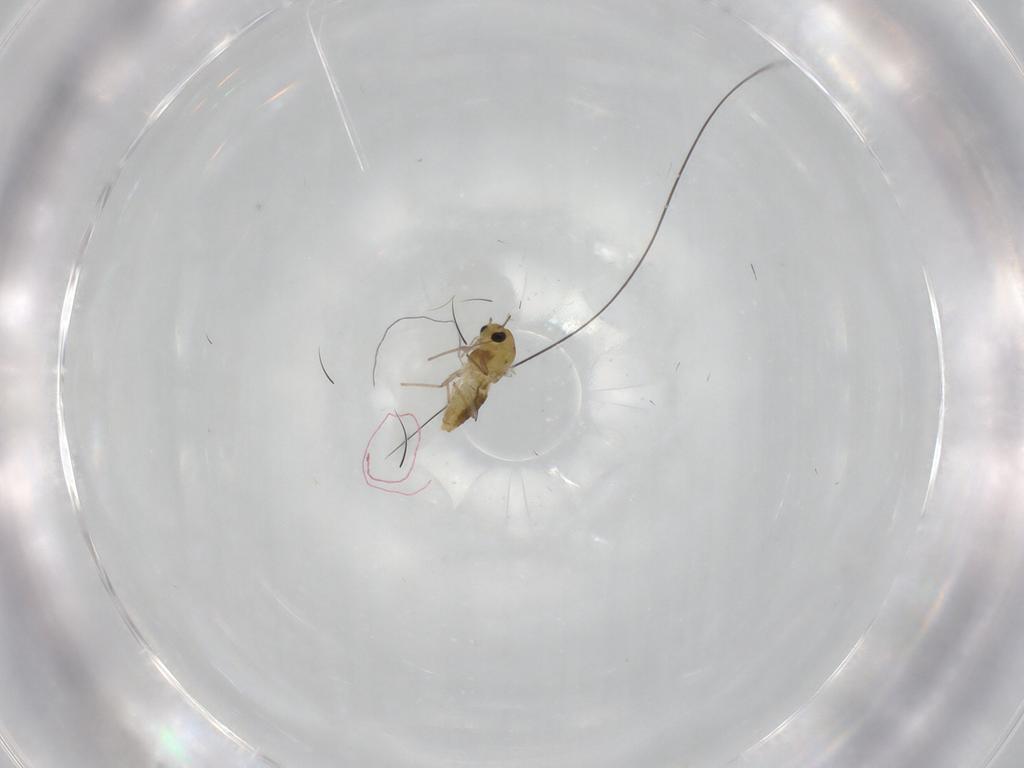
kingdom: Animalia
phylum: Arthropoda
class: Insecta
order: Diptera
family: Chironomidae
